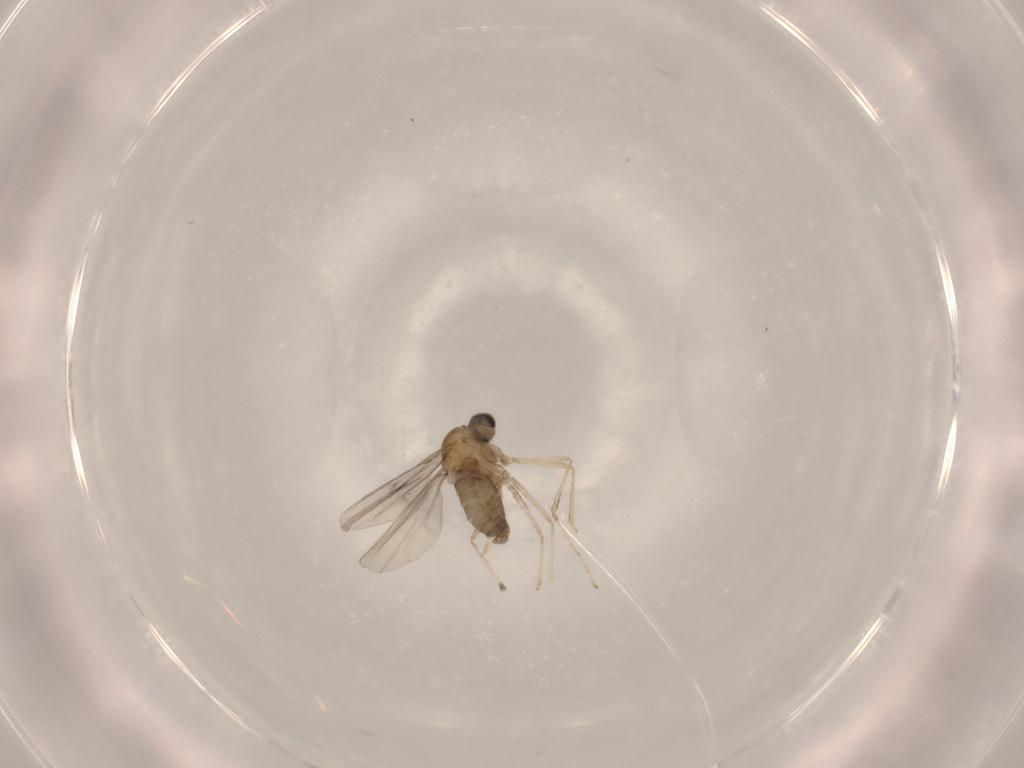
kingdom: Animalia
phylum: Arthropoda
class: Insecta
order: Diptera
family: Cecidomyiidae
